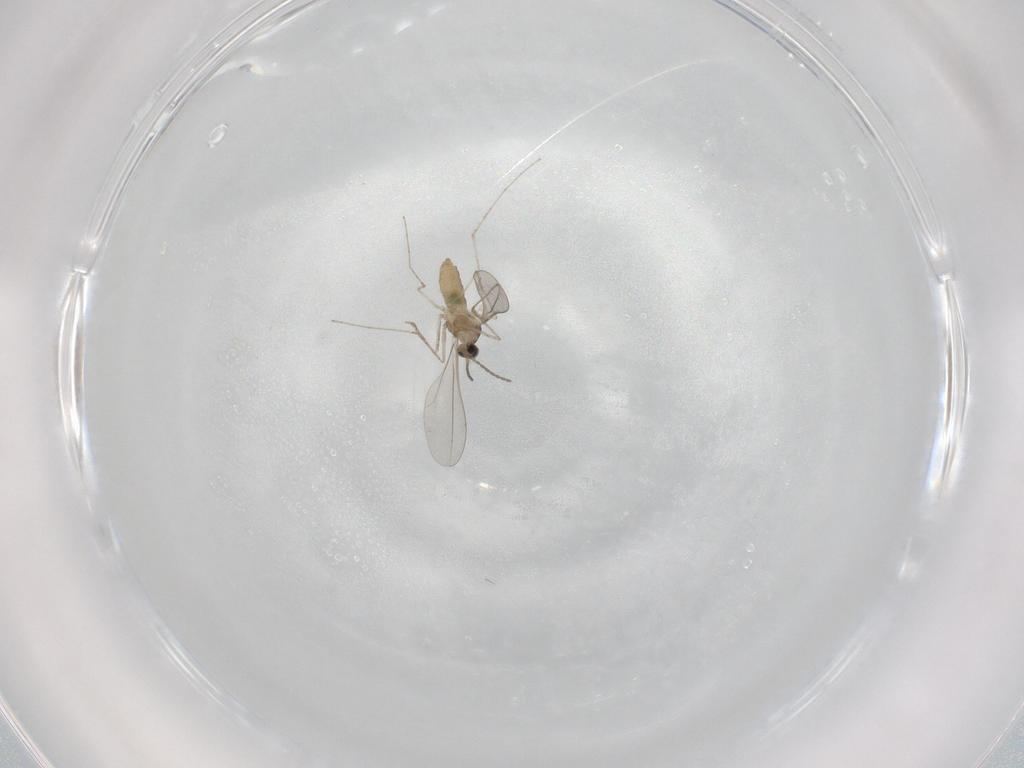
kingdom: Animalia
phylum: Arthropoda
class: Insecta
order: Diptera
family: Cecidomyiidae
